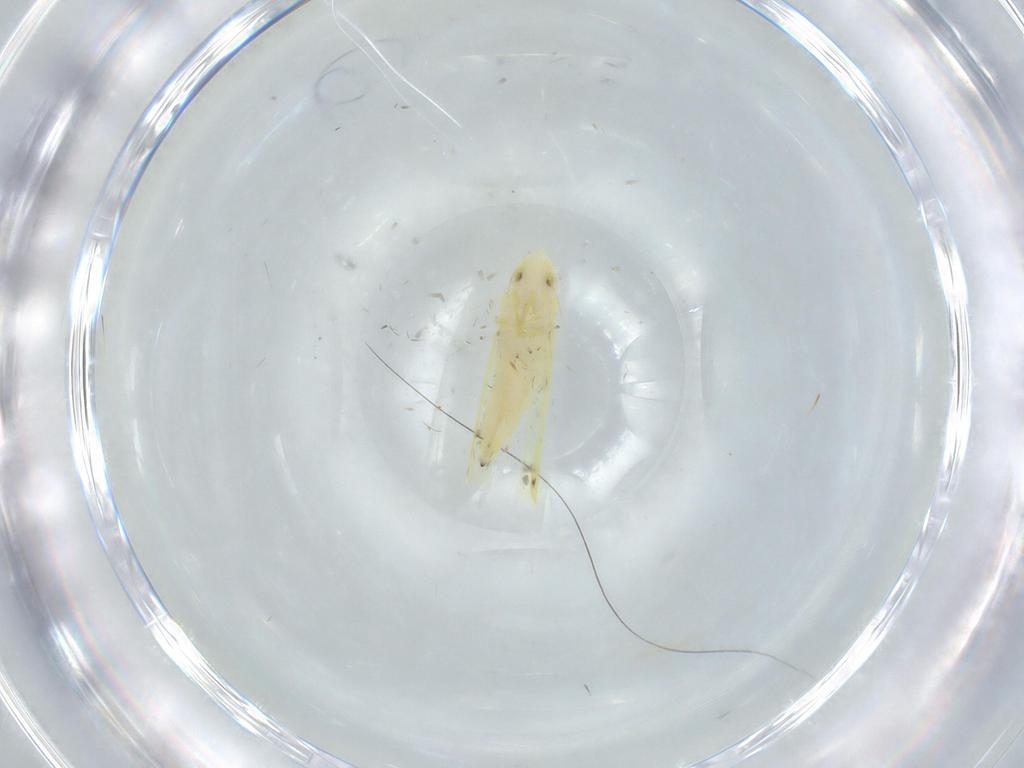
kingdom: Animalia
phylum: Arthropoda
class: Insecta
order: Hemiptera
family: Cicadellidae
